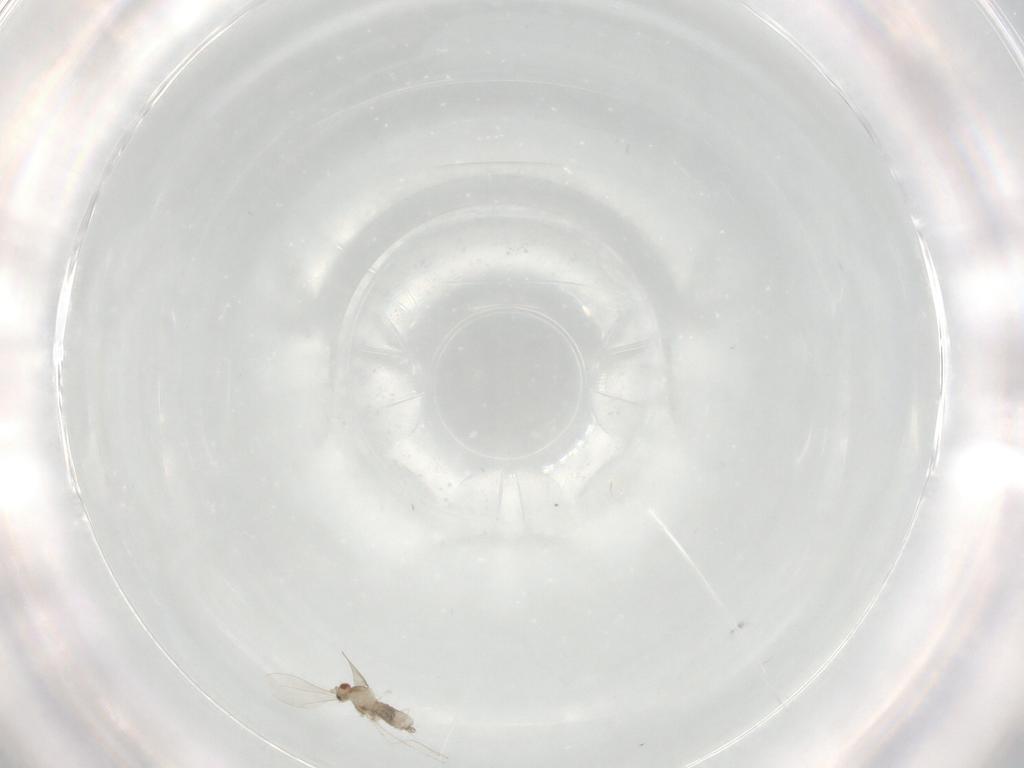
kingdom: Animalia
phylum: Arthropoda
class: Insecta
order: Diptera
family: Cecidomyiidae
